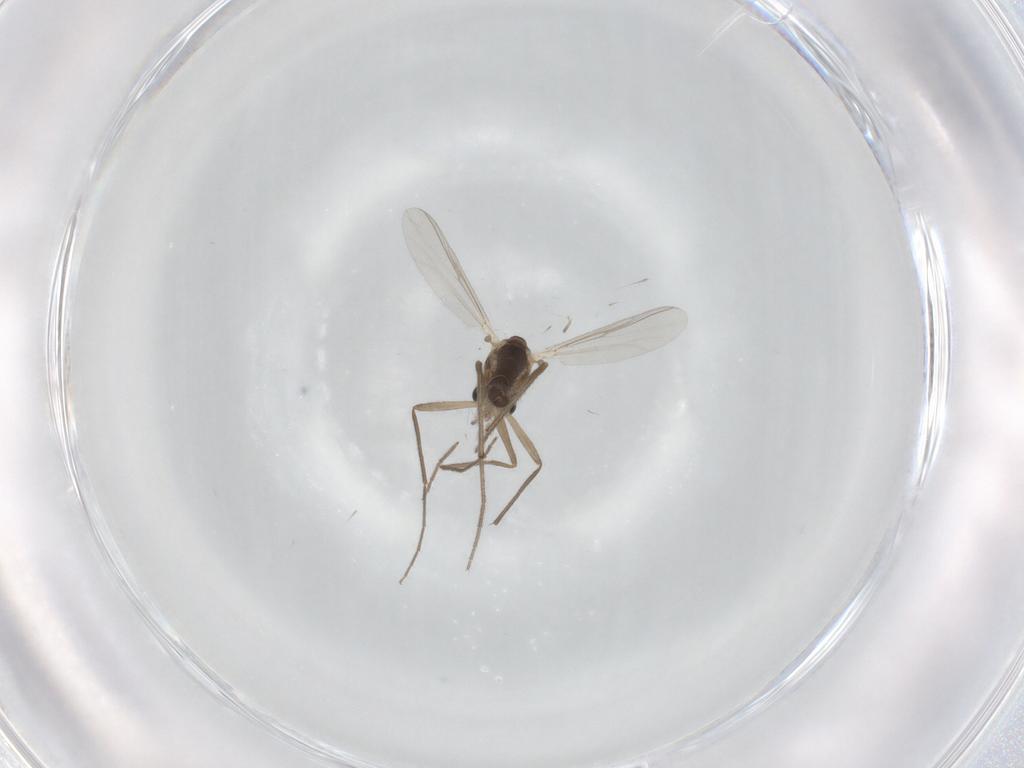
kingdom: Animalia
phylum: Arthropoda
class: Insecta
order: Diptera
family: Chironomidae
